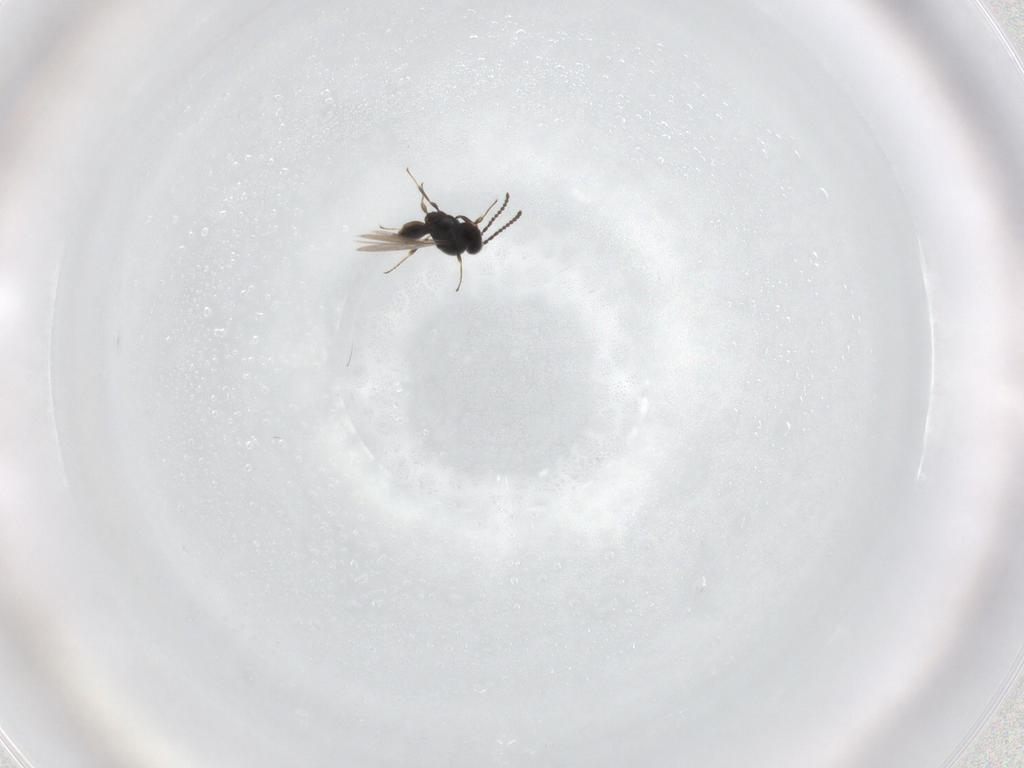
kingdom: Animalia
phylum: Arthropoda
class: Insecta
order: Hymenoptera
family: Scelionidae
